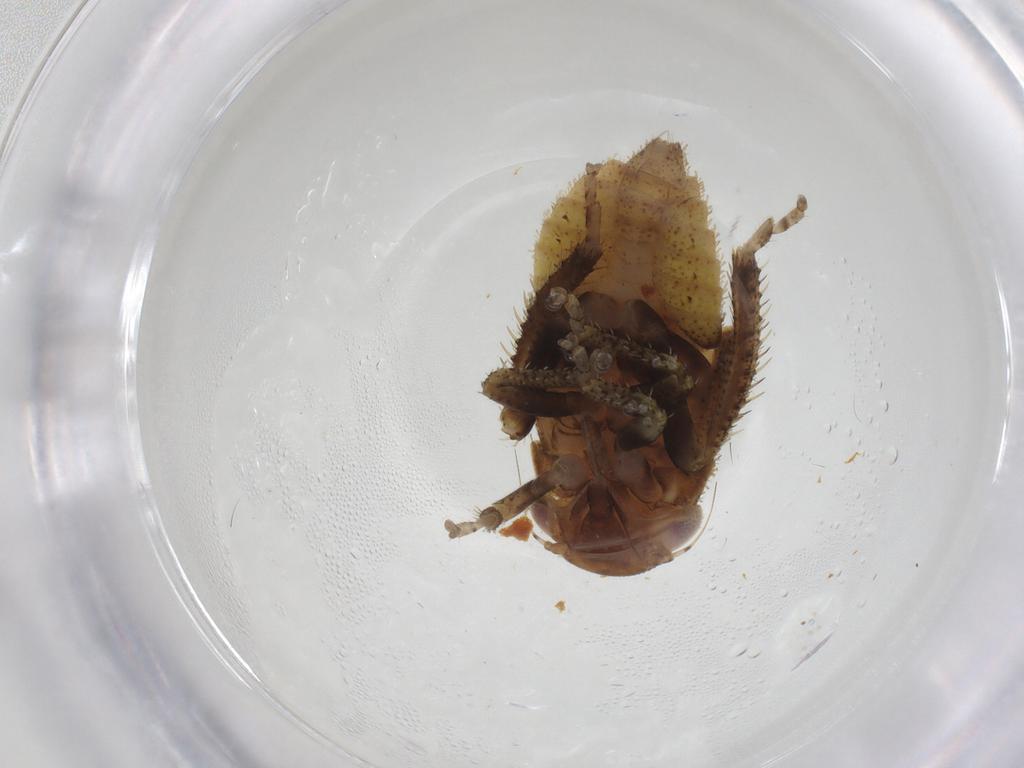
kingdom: Animalia
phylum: Arthropoda
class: Insecta
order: Hemiptera
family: Cicadellidae
